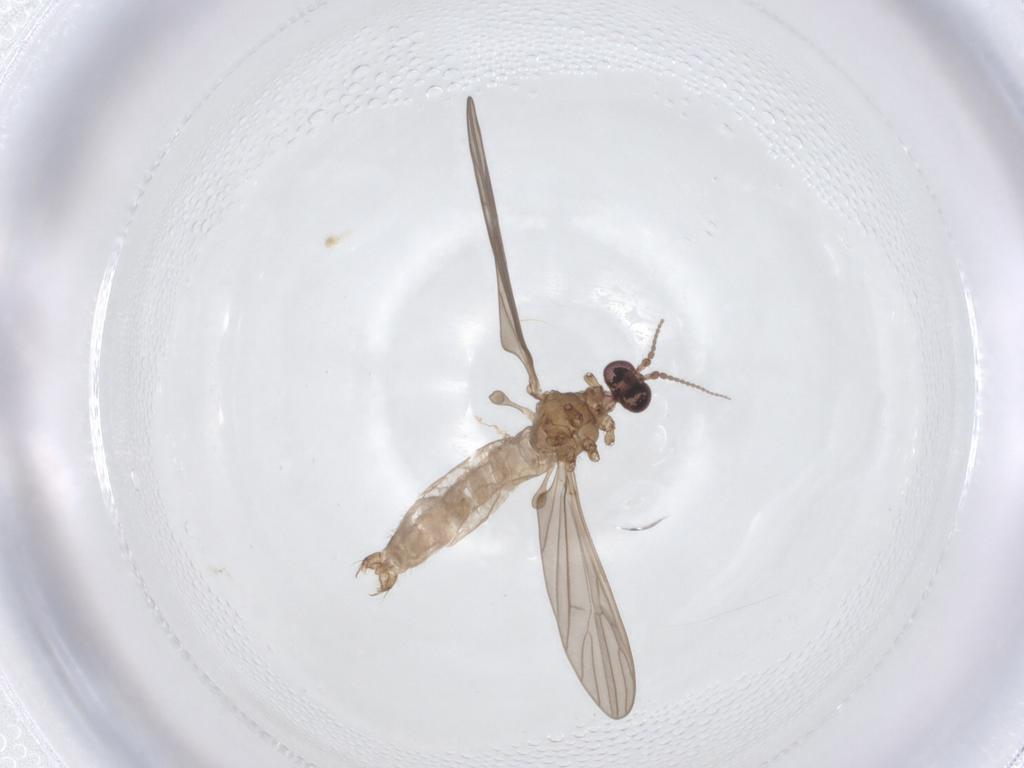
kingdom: Animalia
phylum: Arthropoda
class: Insecta
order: Diptera
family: Limoniidae
